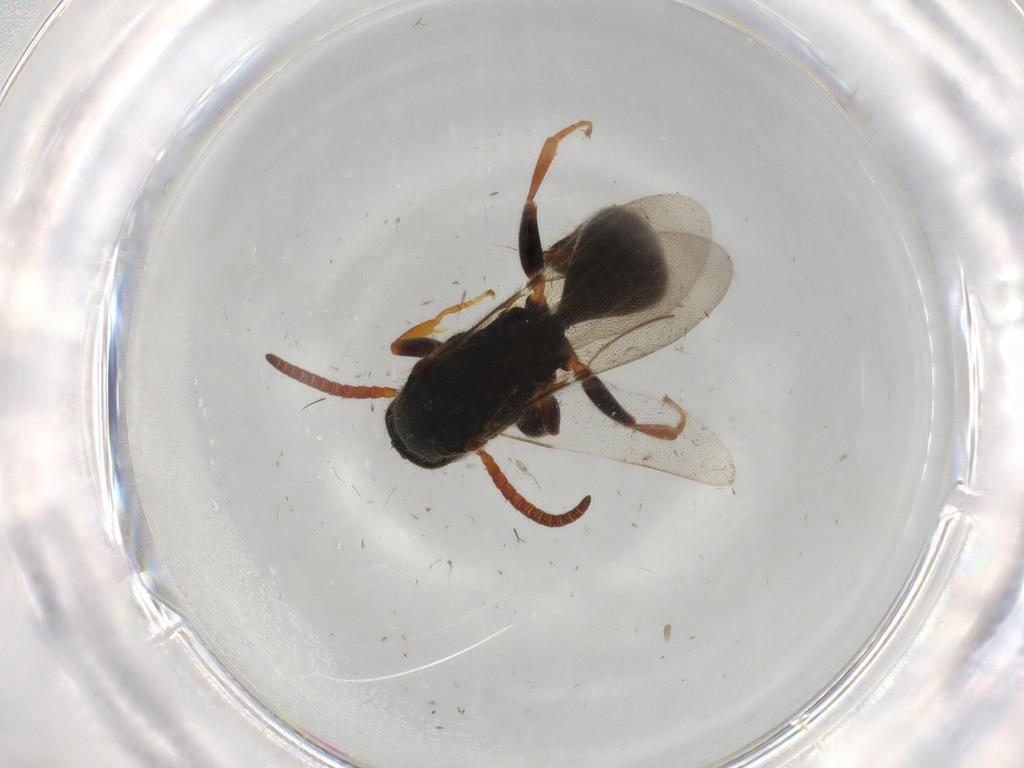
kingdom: Animalia
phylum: Arthropoda
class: Insecta
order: Hymenoptera
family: Bethylidae
